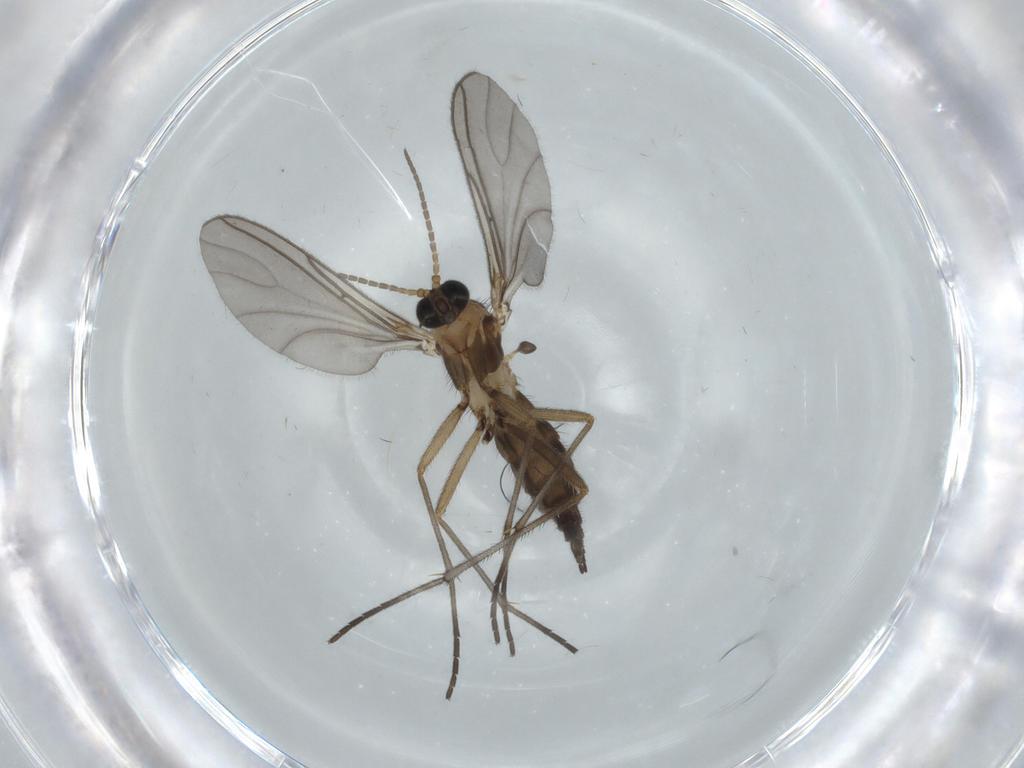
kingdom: Animalia
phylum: Arthropoda
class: Insecta
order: Diptera
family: Sciaridae
